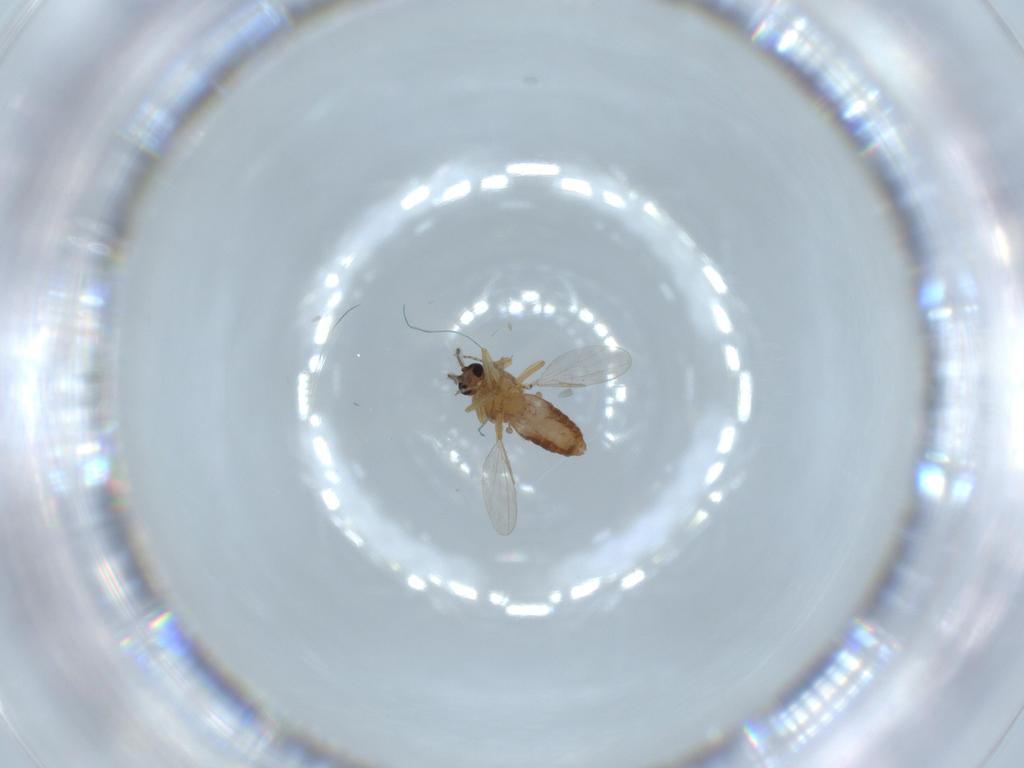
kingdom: Animalia
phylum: Arthropoda
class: Insecta
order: Diptera
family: Ceratopogonidae
